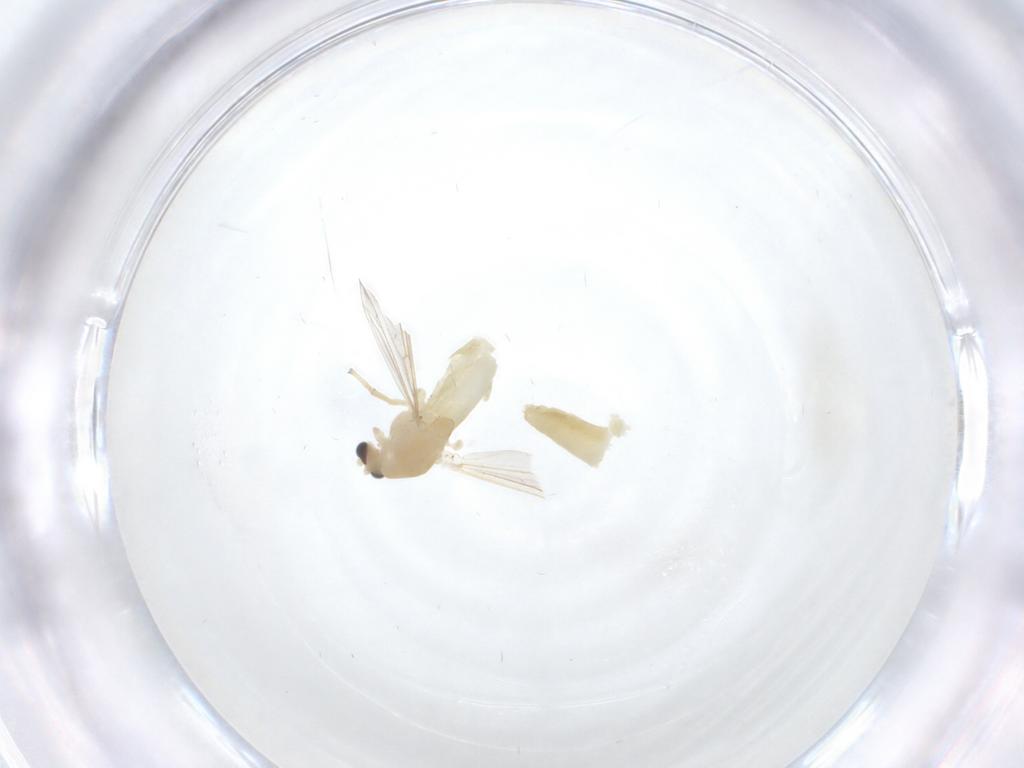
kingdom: Animalia
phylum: Arthropoda
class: Insecta
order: Diptera
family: Chironomidae
